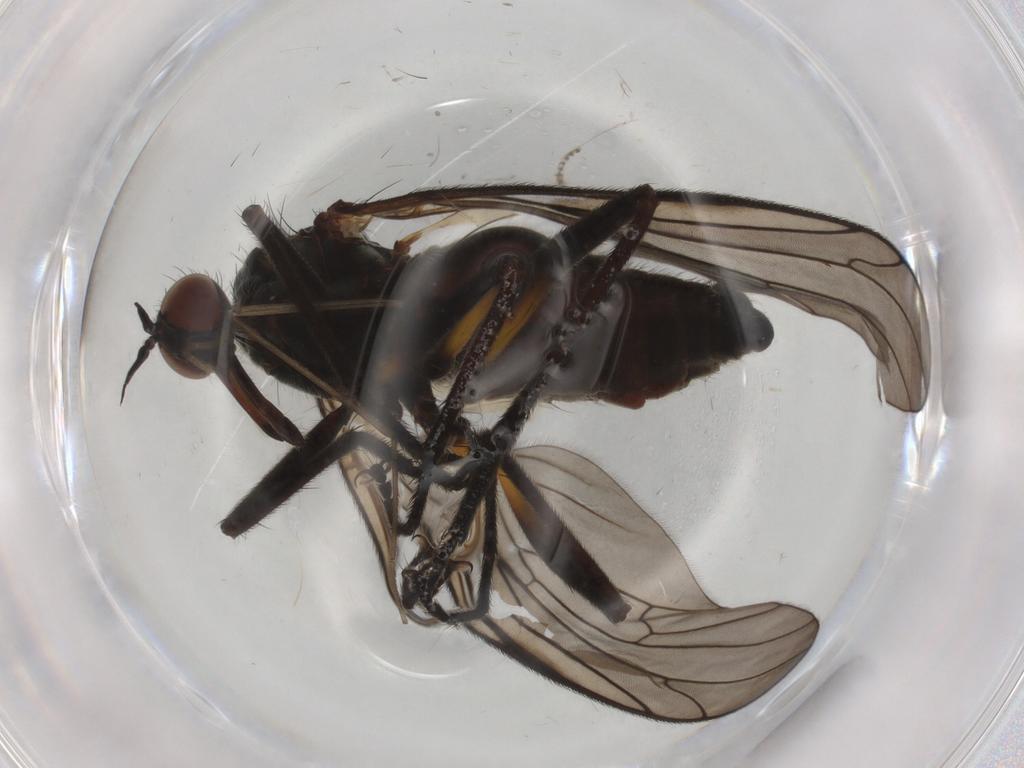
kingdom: Animalia
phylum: Arthropoda
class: Insecta
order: Diptera
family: Empididae
